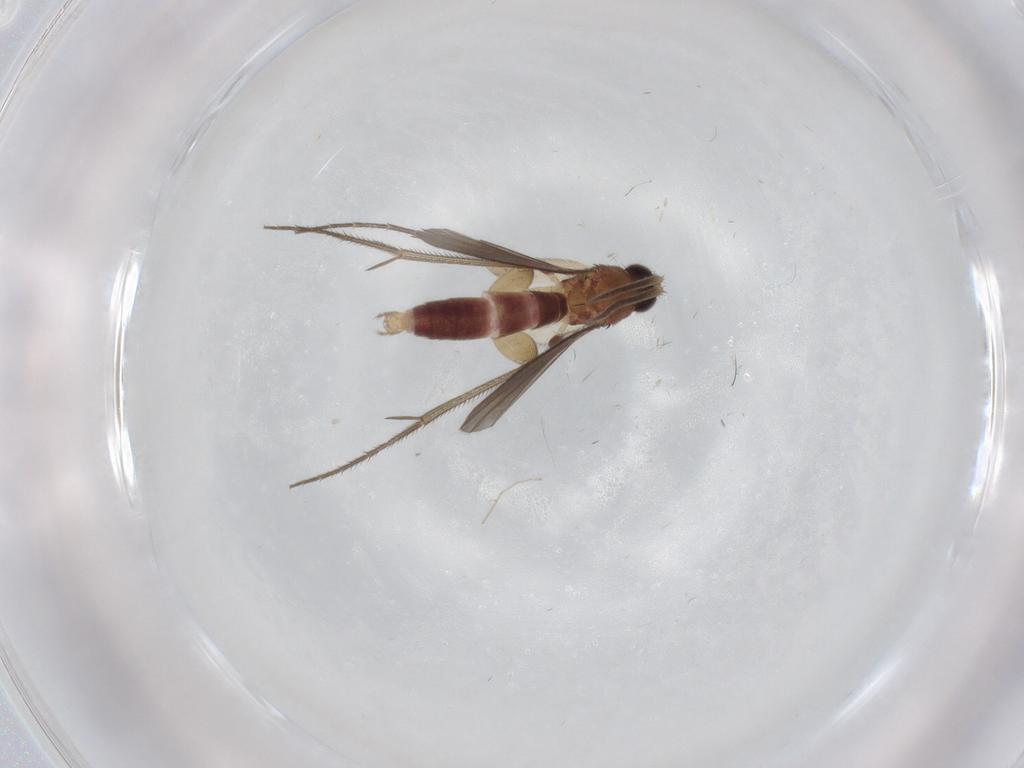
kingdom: Animalia
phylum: Arthropoda
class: Insecta
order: Diptera
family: Mycetophilidae
